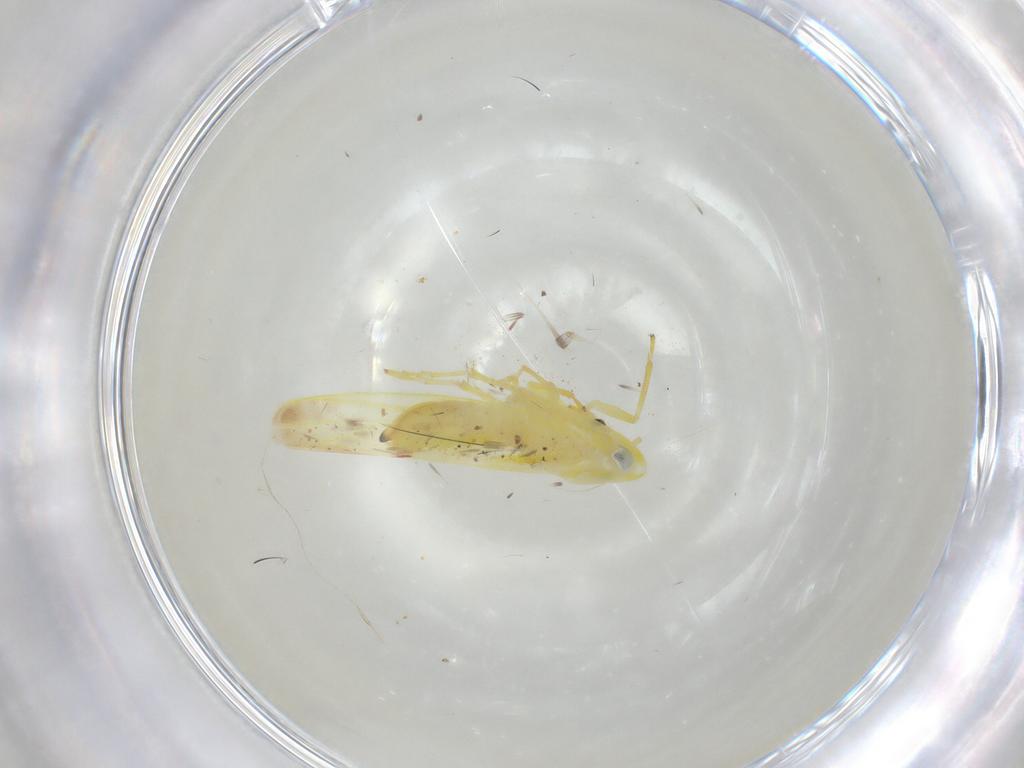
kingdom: Animalia
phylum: Arthropoda
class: Insecta
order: Hemiptera
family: Cicadellidae
